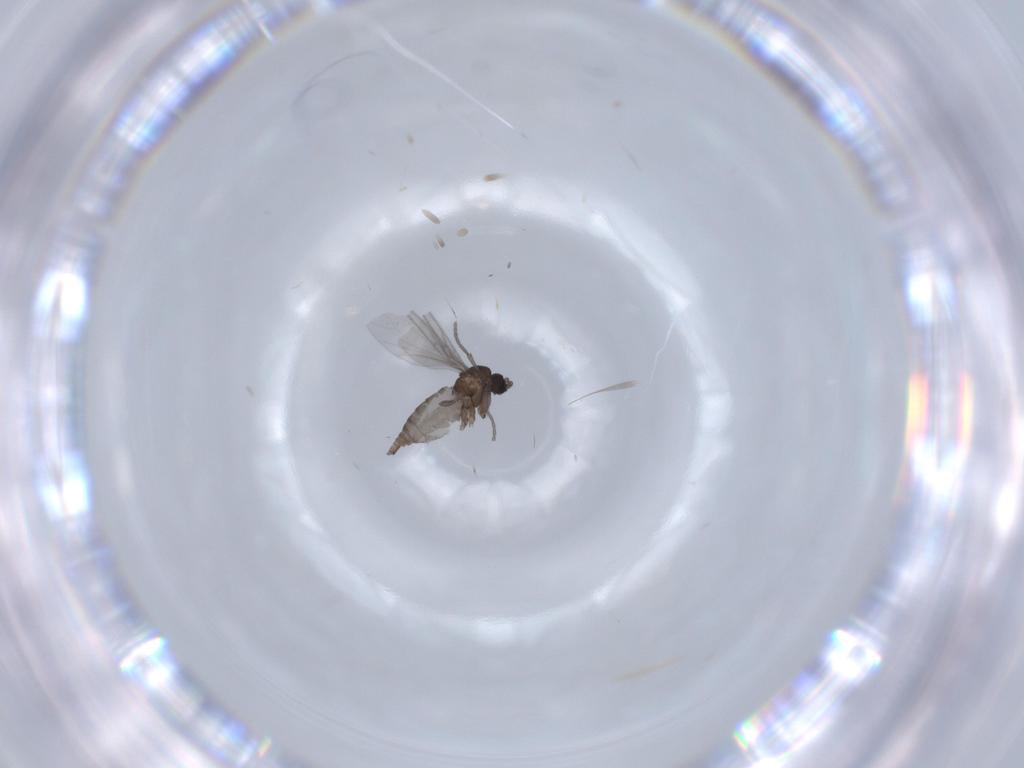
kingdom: Animalia
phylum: Arthropoda
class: Insecta
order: Diptera
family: Sciaridae
